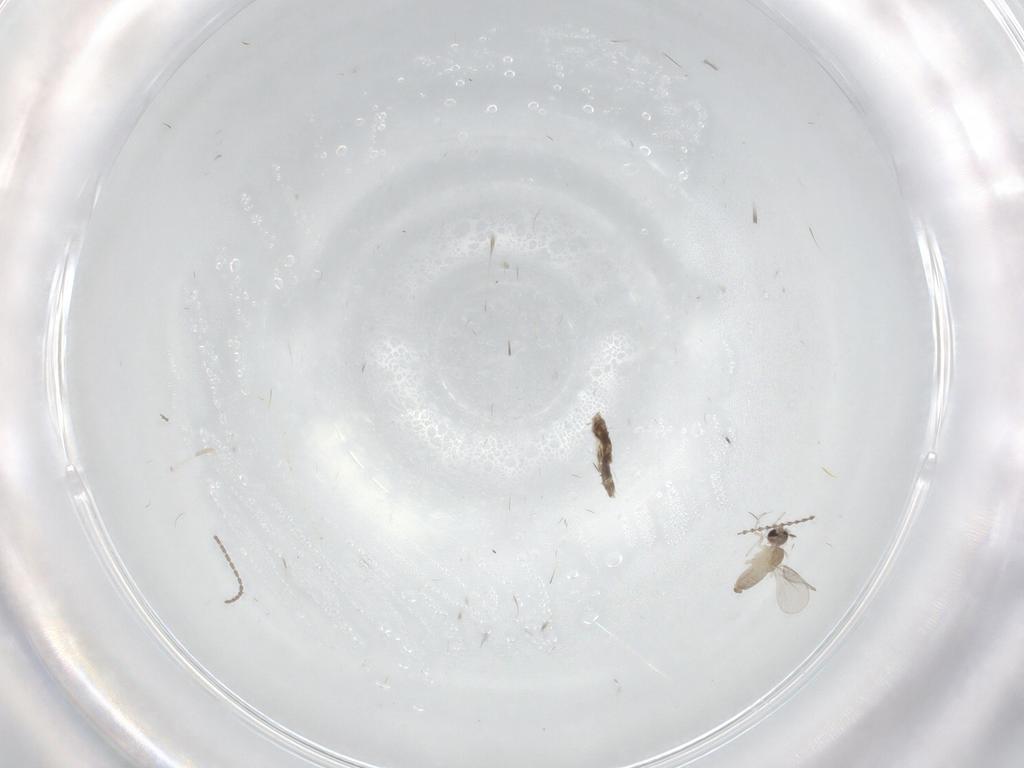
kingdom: Animalia
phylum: Arthropoda
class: Insecta
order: Diptera
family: Cecidomyiidae
